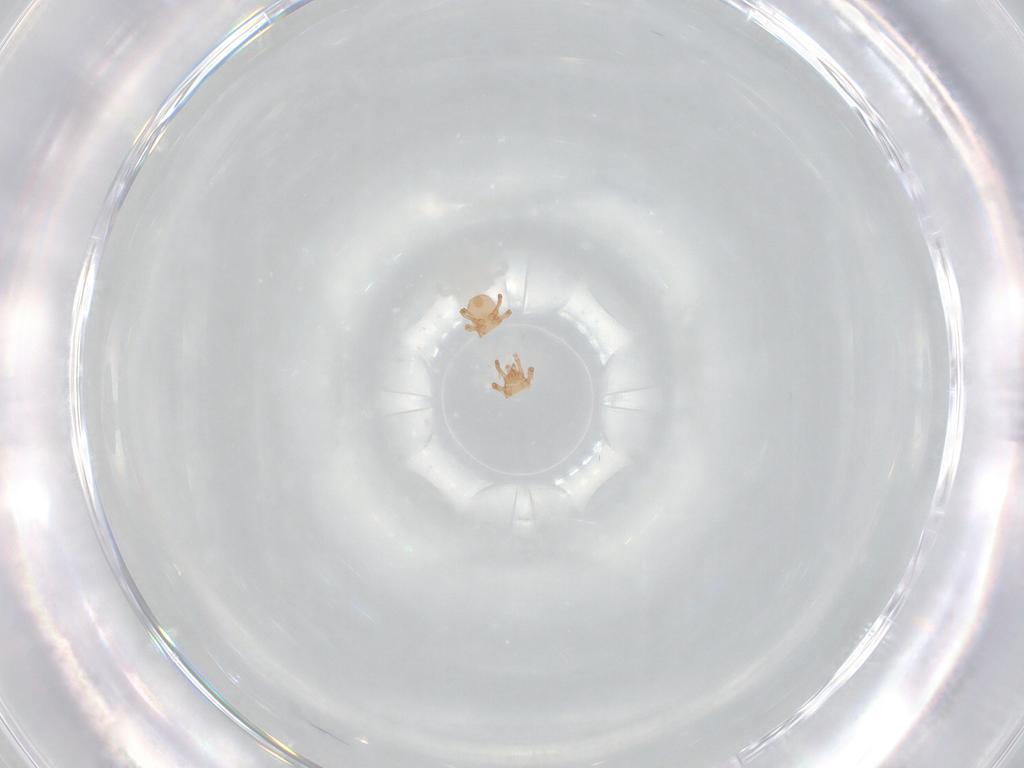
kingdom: Animalia
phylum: Arthropoda
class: Arachnida
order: Mesostigmata
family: Ascidae
